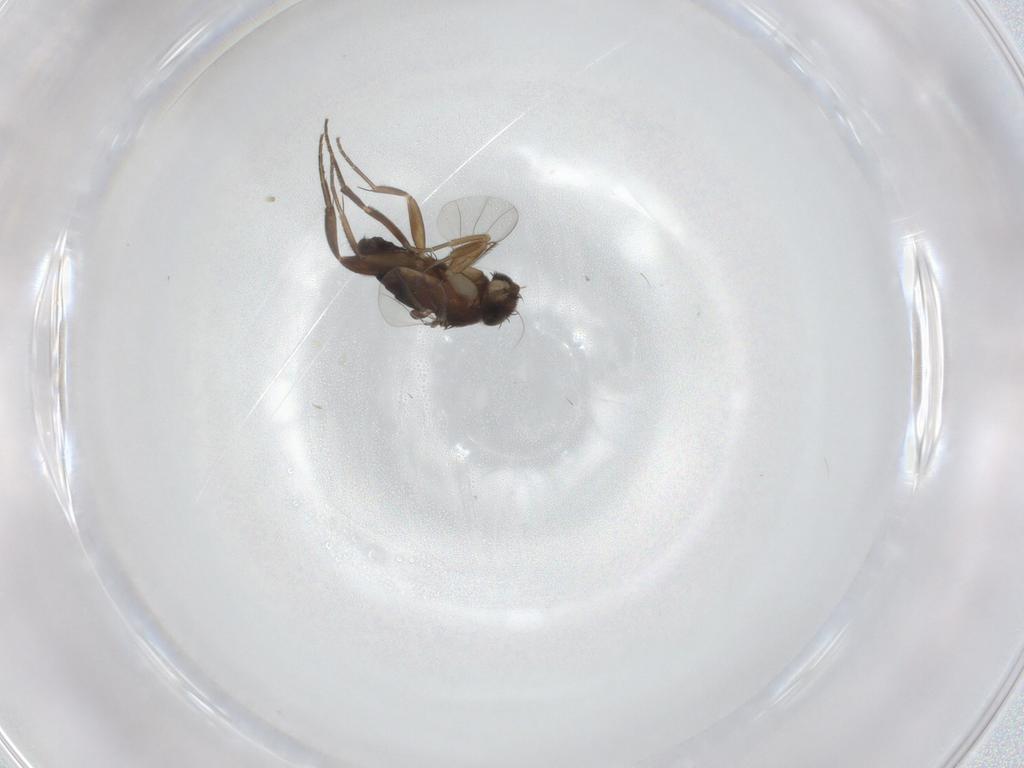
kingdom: Animalia
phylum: Arthropoda
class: Insecta
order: Diptera
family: Phoridae
